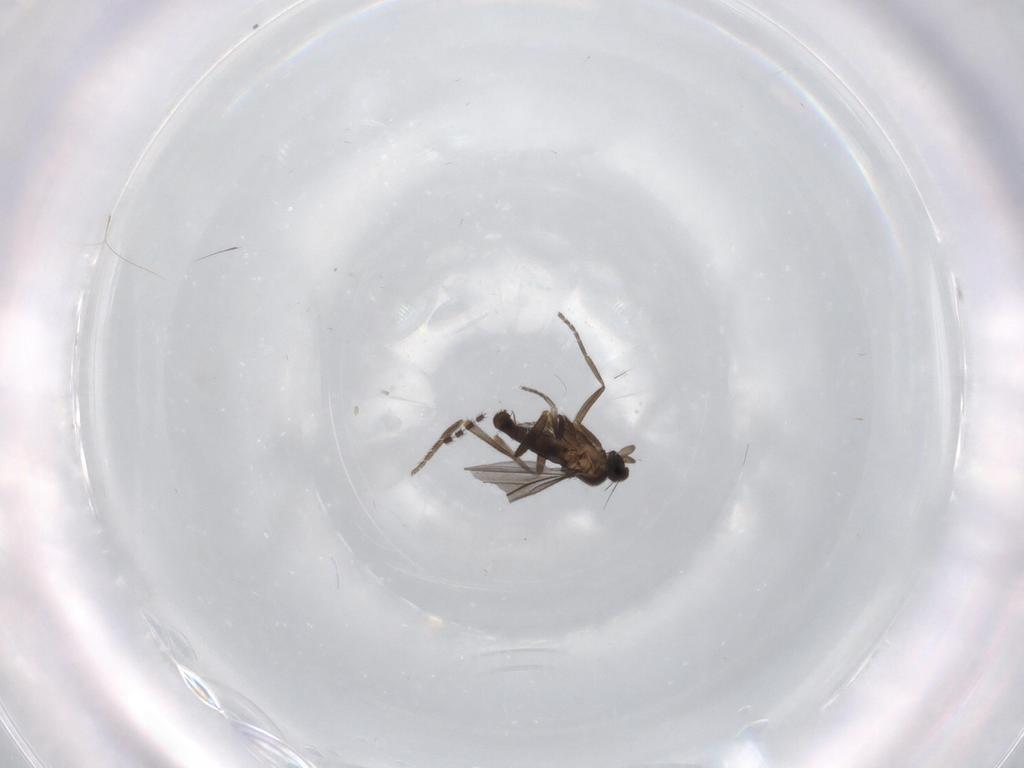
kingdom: Animalia
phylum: Arthropoda
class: Insecta
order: Diptera
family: Phoridae
